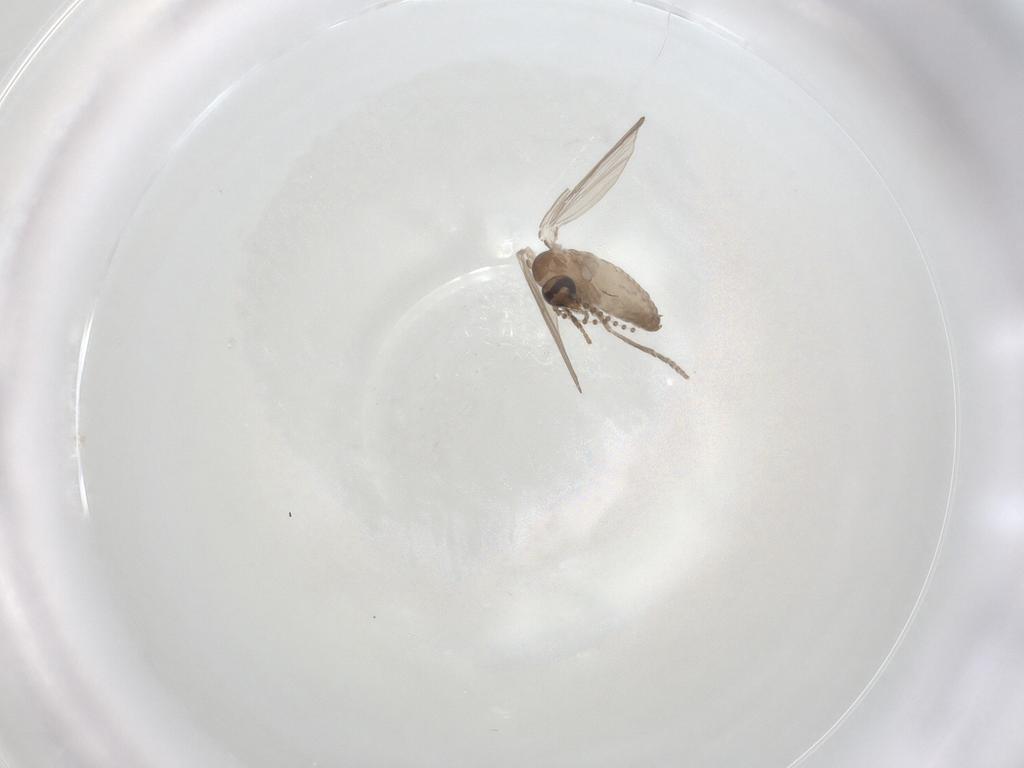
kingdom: Animalia
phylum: Arthropoda
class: Insecta
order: Diptera
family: Psychodidae
